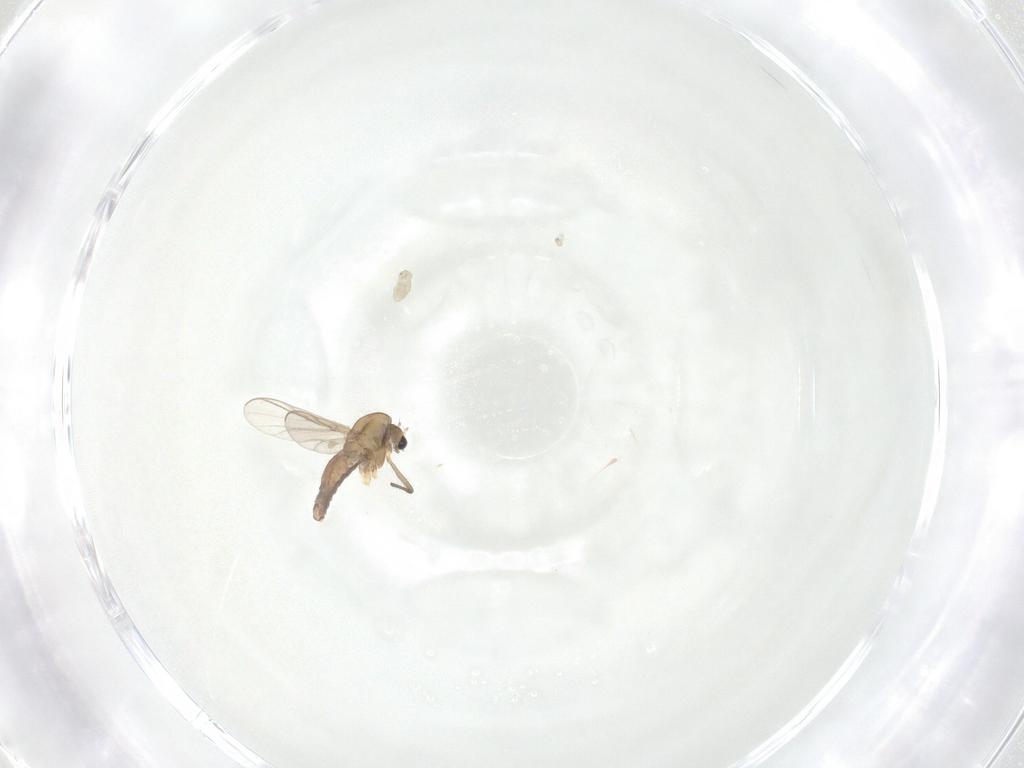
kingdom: Animalia
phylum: Arthropoda
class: Insecta
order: Diptera
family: Chironomidae
